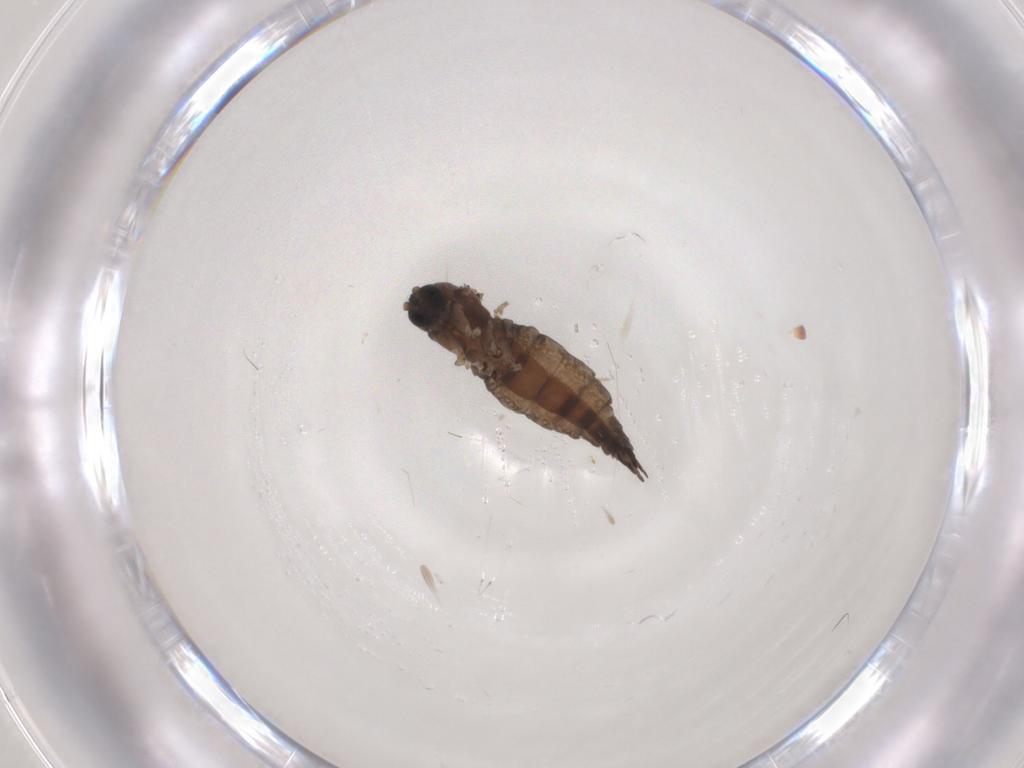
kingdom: Animalia
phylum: Arthropoda
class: Insecta
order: Diptera
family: Sciaridae
